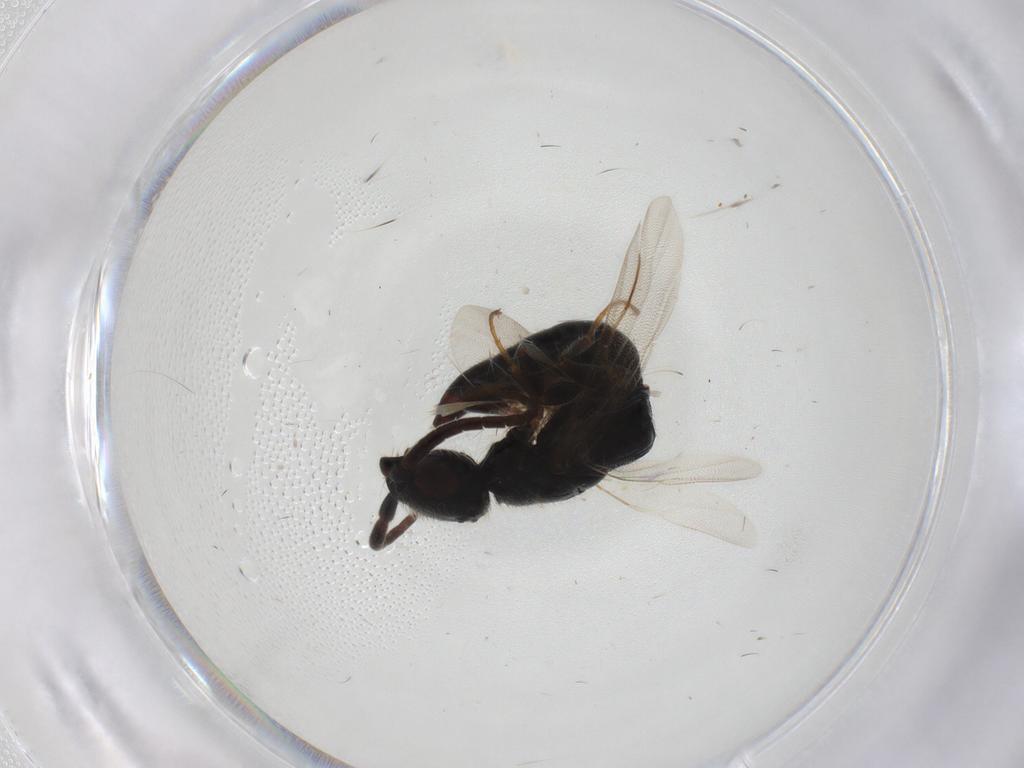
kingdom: Animalia
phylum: Arthropoda
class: Insecta
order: Hymenoptera
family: Bethylidae
